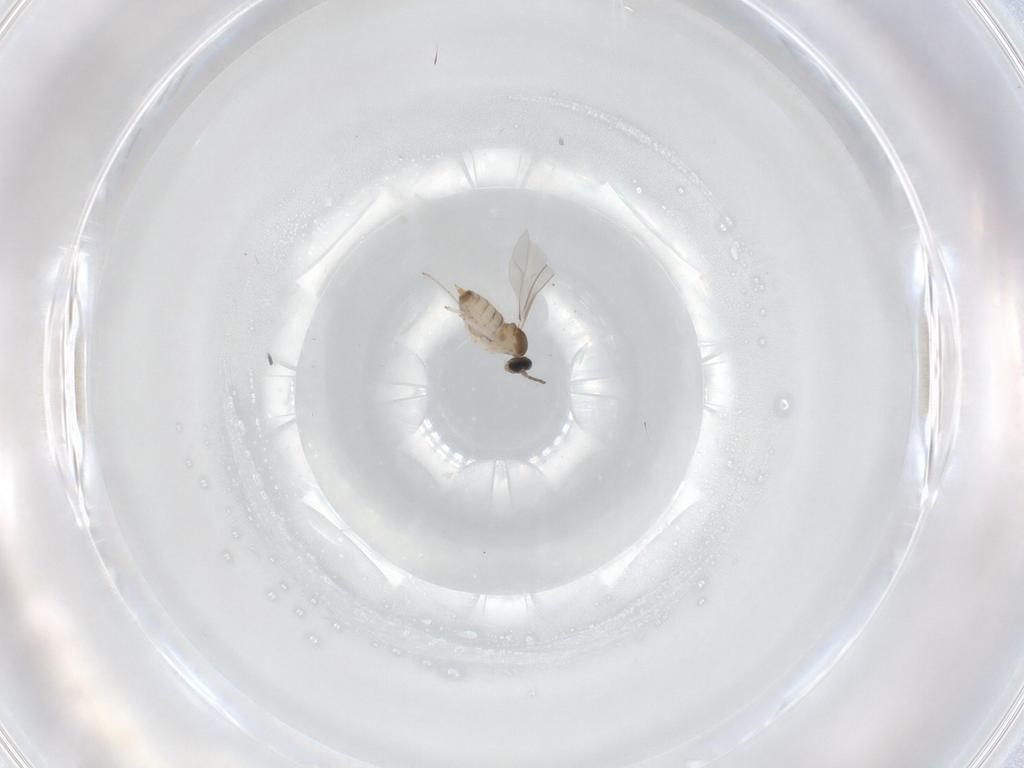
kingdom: Animalia
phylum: Arthropoda
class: Insecta
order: Diptera
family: Cecidomyiidae
